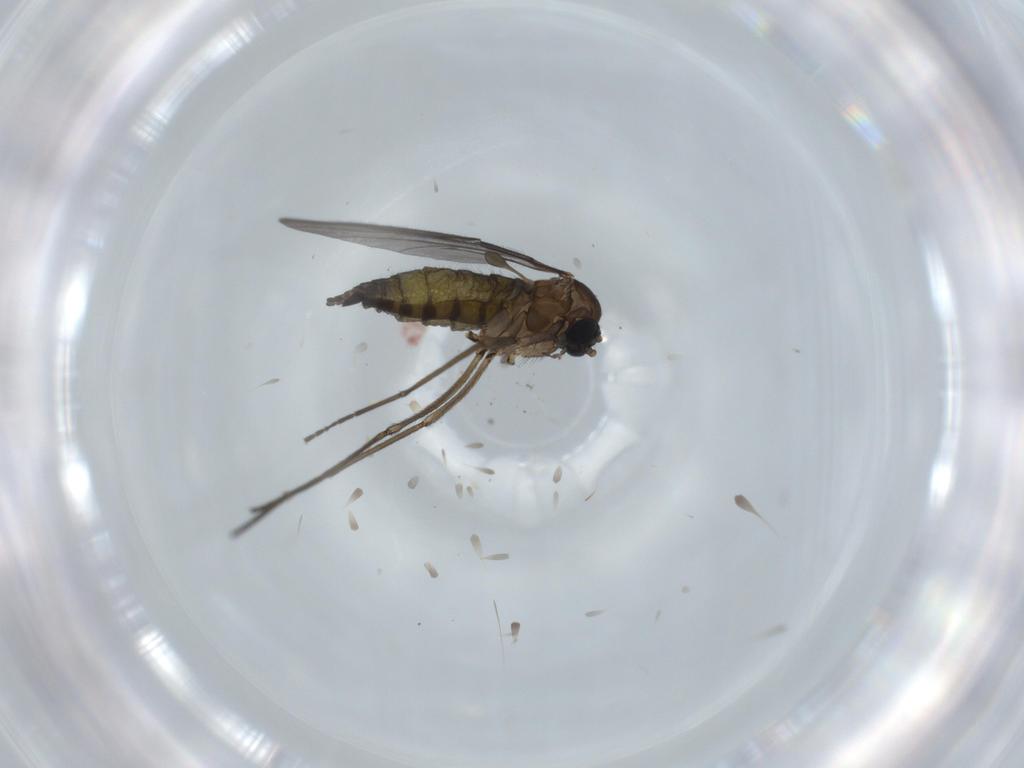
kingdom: Animalia
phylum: Arthropoda
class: Insecta
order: Diptera
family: Sciaridae
